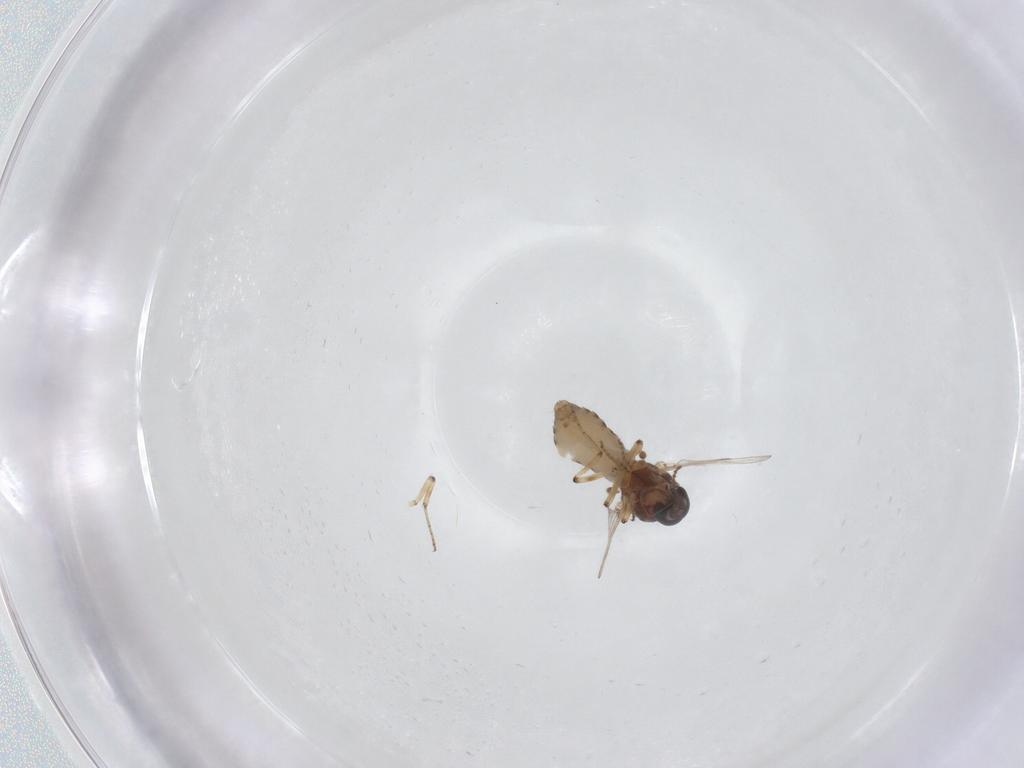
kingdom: Animalia
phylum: Arthropoda
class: Insecta
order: Diptera
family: Ceratopogonidae
